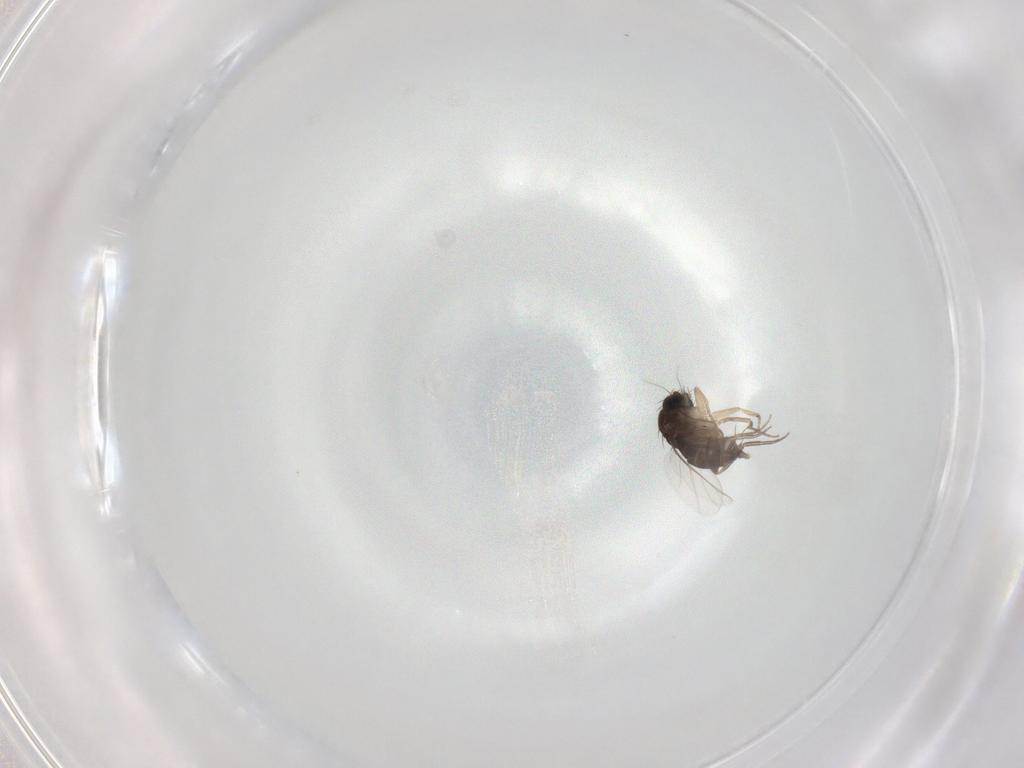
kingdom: Animalia
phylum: Arthropoda
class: Insecta
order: Diptera
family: Phoridae
